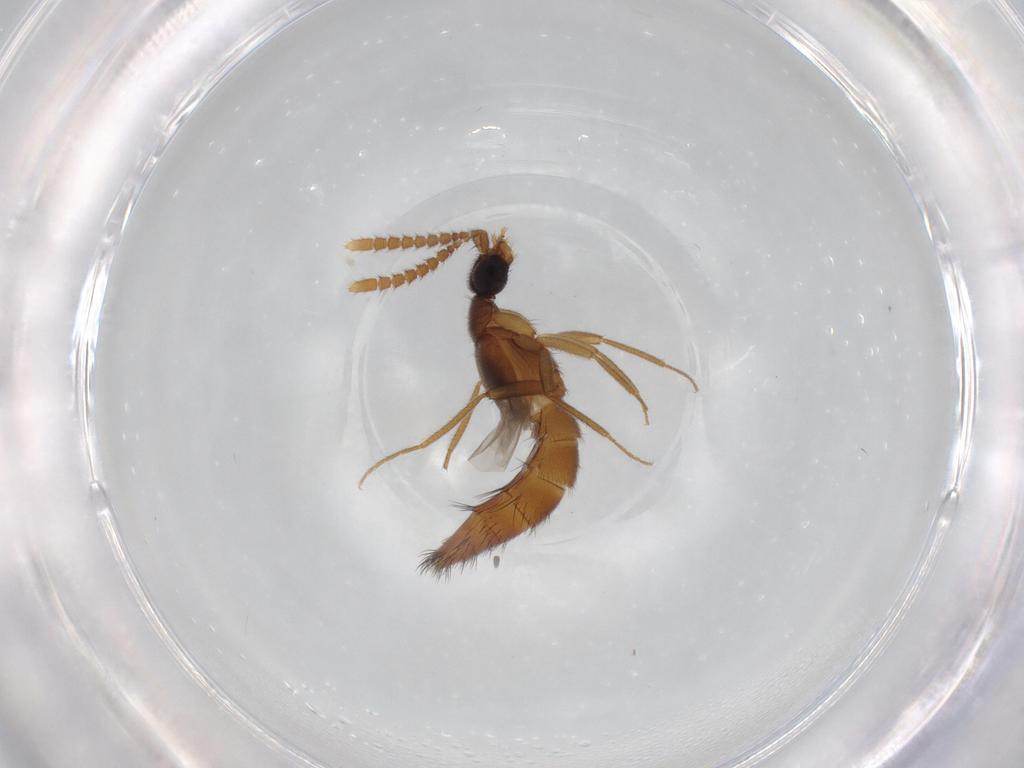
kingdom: Animalia
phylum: Arthropoda
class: Insecta
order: Coleoptera
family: Staphylinidae
